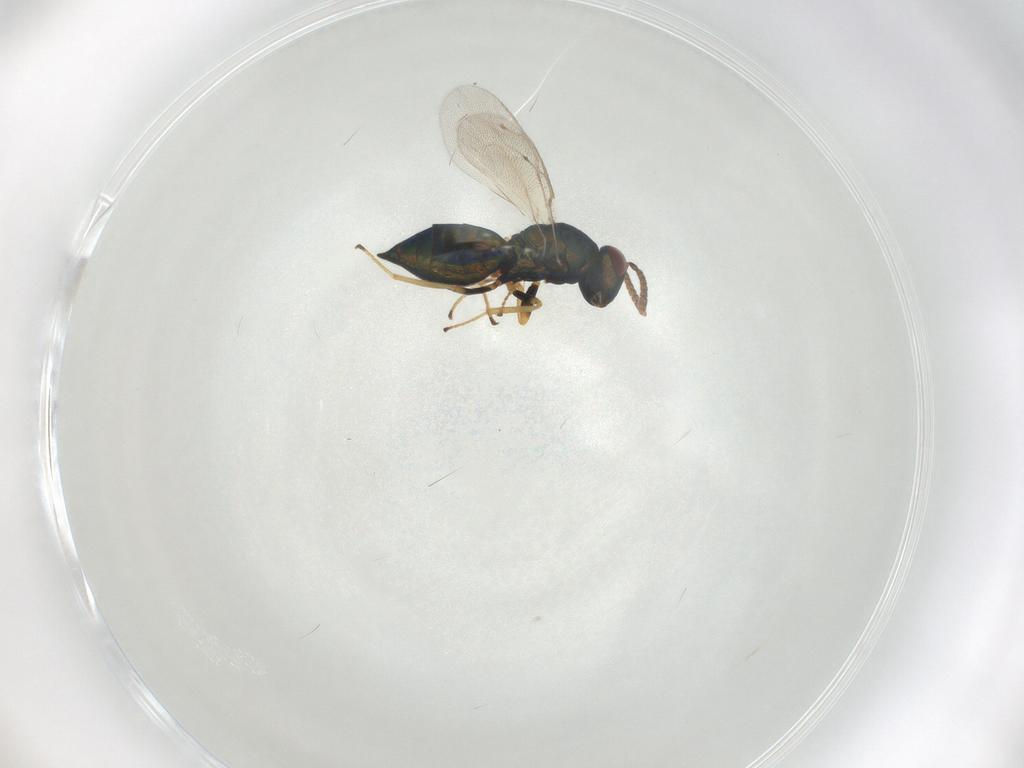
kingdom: Animalia
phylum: Arthropoda
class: Insecta
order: Hymenoptera
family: Pteromalidae
